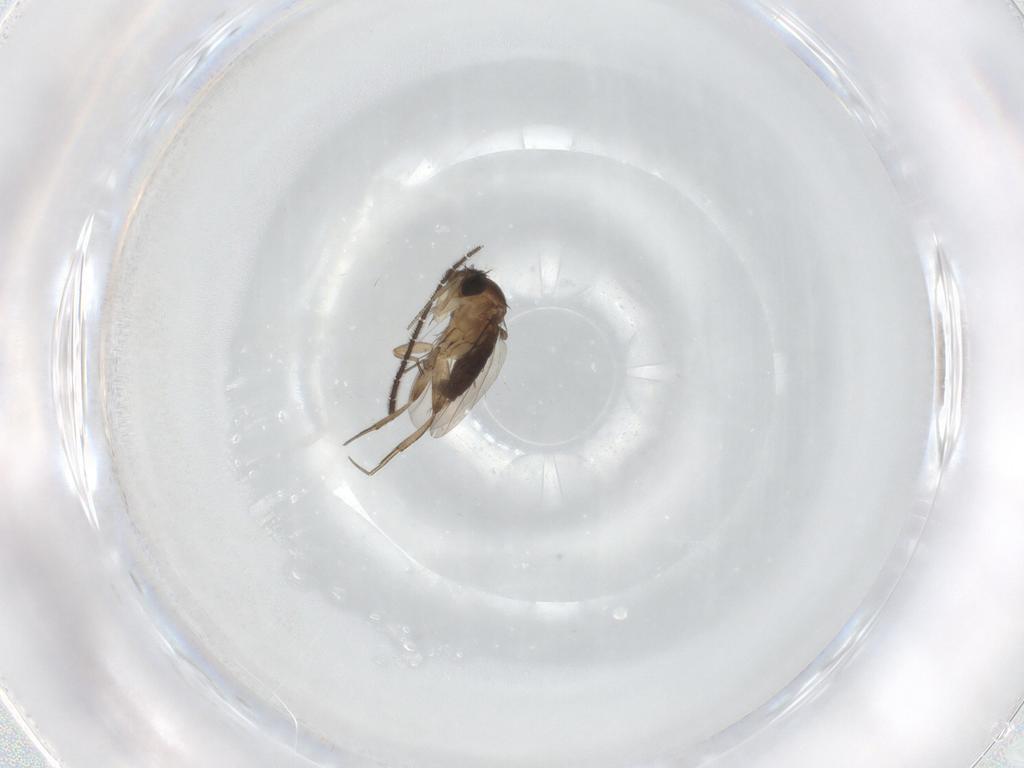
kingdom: Animalia
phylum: Arthropoda
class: Insecta
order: Diptera
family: Phoridae
